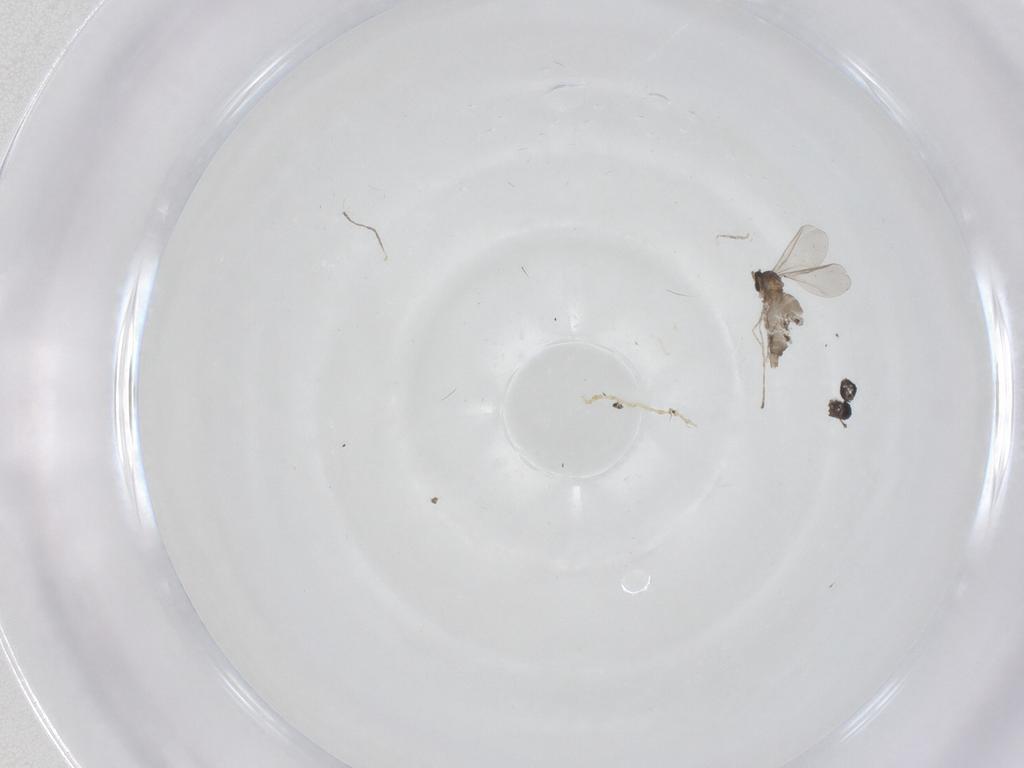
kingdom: Animalia
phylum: Arthropoda
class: Insecta
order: Diptera
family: Cecidomyiidae
